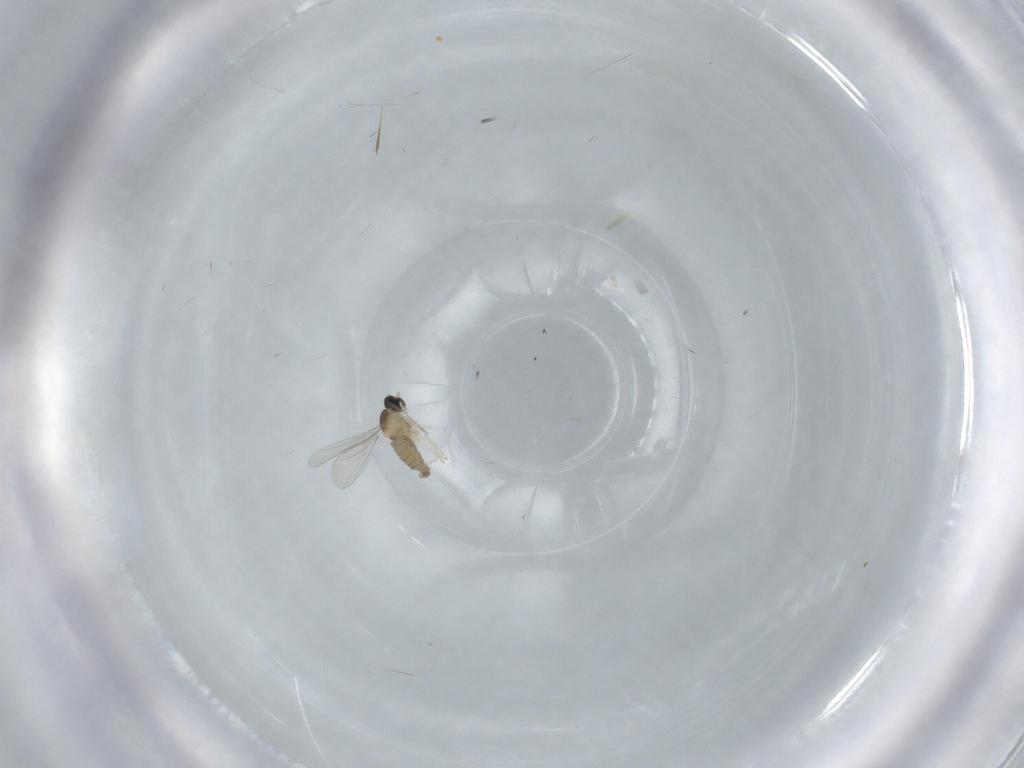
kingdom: Animalia
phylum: Arthropoda
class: Insecta
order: Diptera
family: Cecidomyiidae
